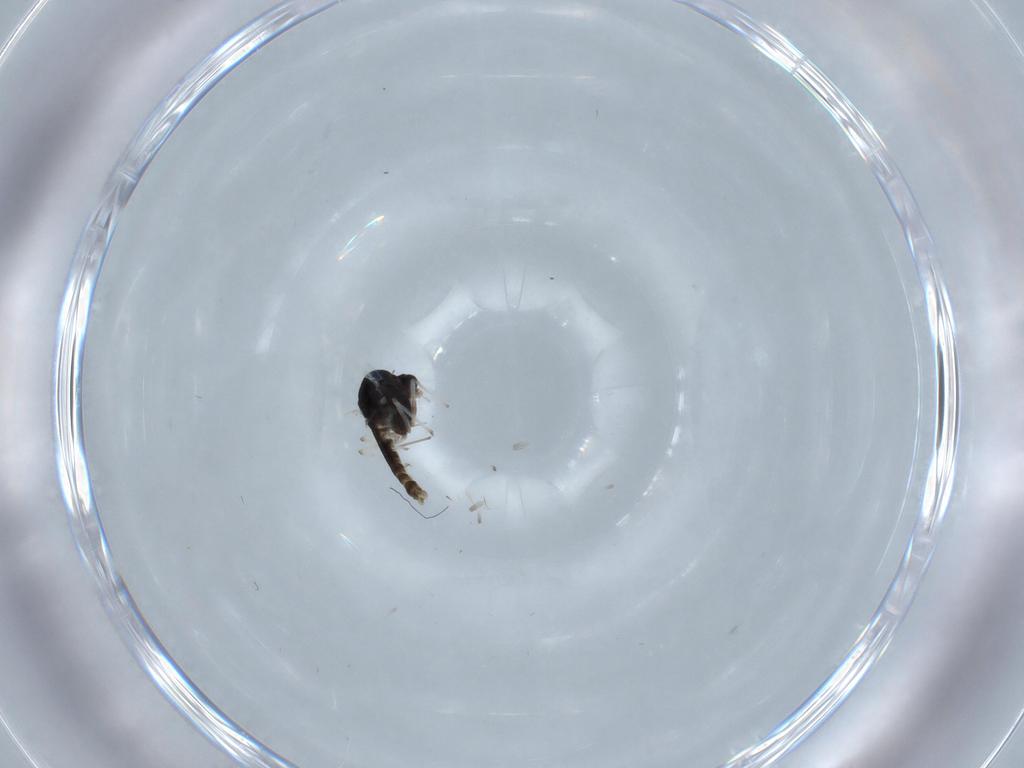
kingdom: Animalia
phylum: Arthropoda
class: Insecta
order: Diptera
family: Chironomidae
